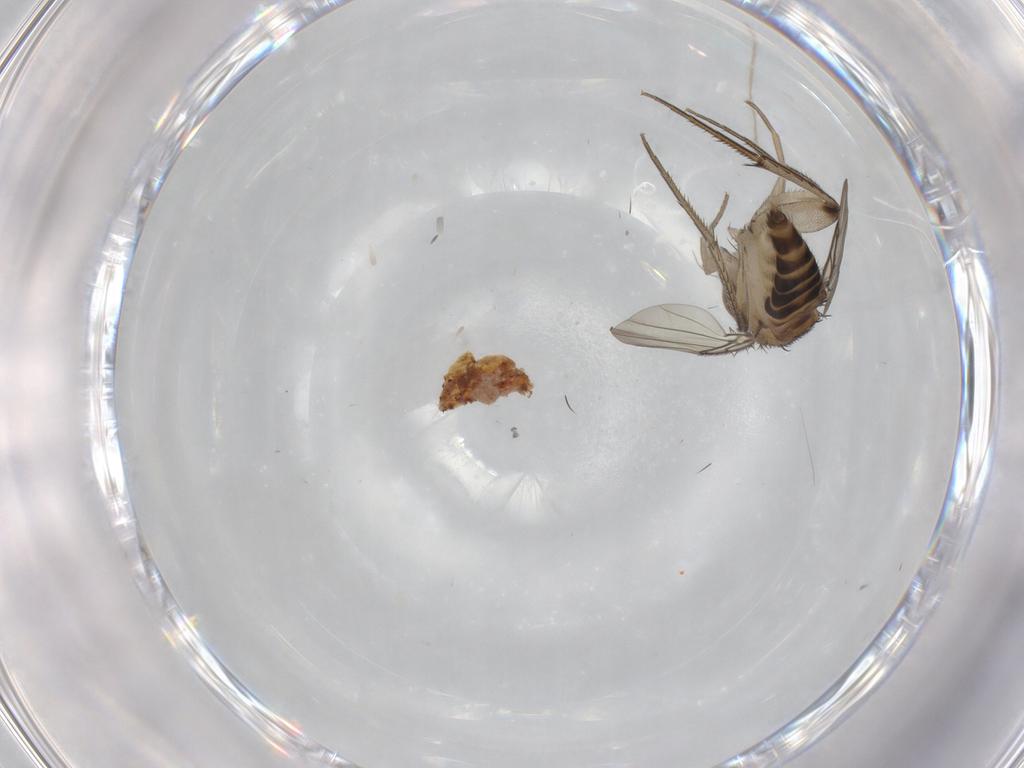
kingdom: Animalia
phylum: Arthropoda
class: Insecta
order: Diptera
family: Phoridae
